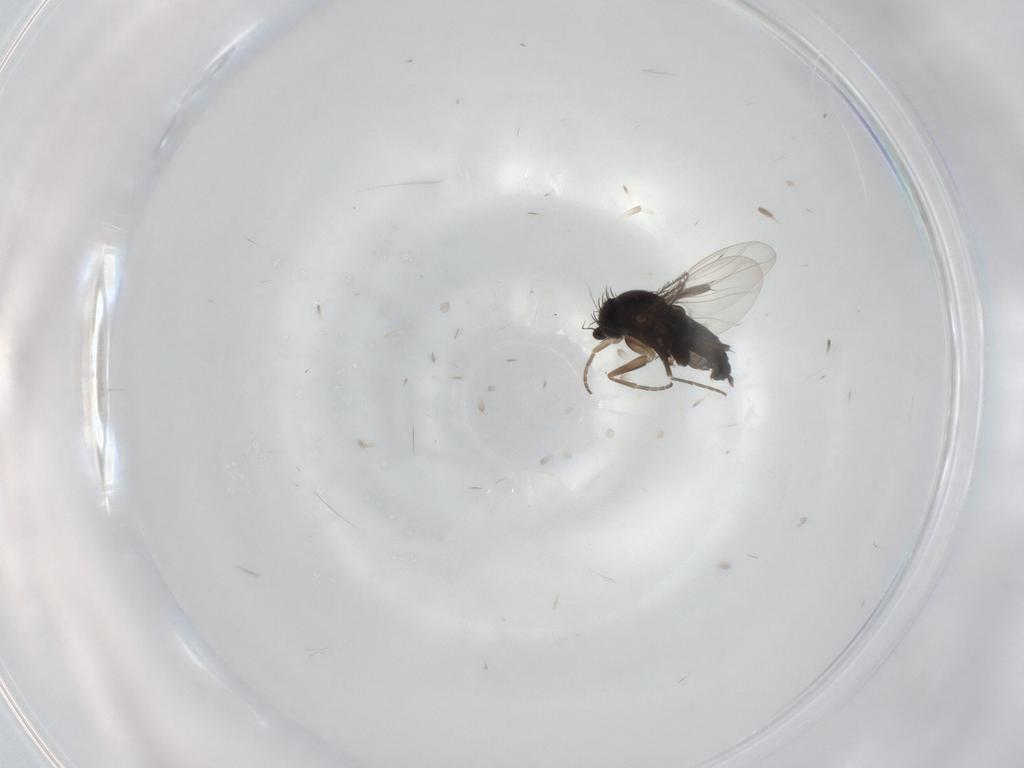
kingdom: Animalia
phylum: Arthropoda
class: Insecta
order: Diptera
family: Phoridae
